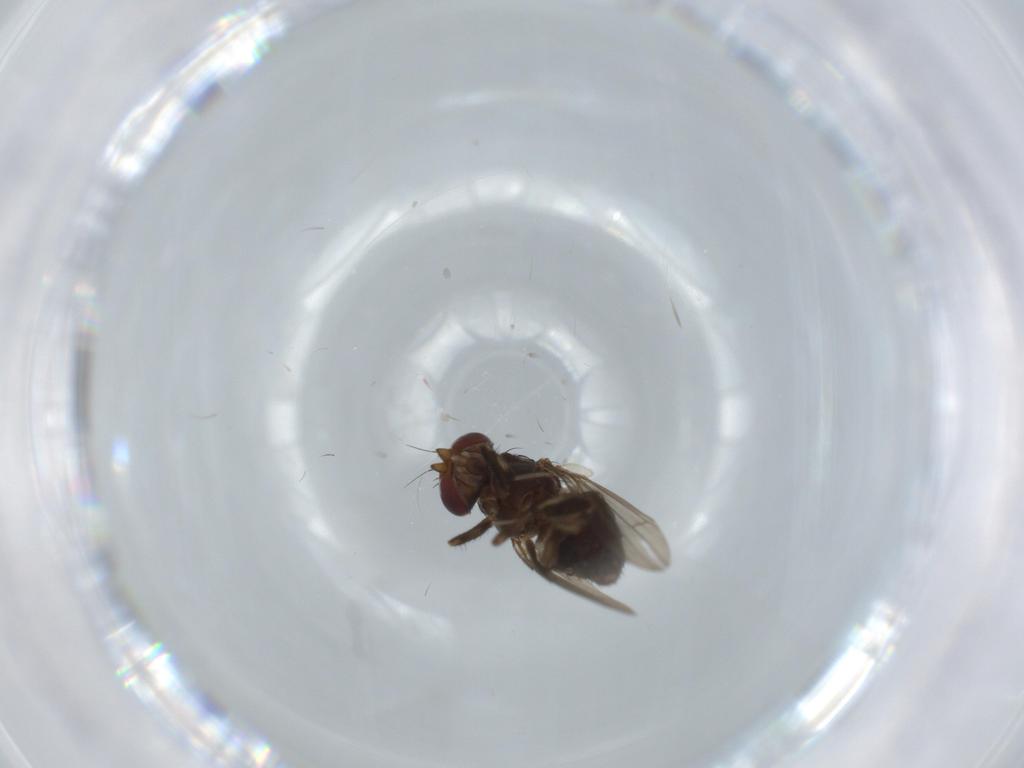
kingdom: Animalia
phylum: Arthropoda
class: Insecta
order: Diptera
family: Heleomyzidae
